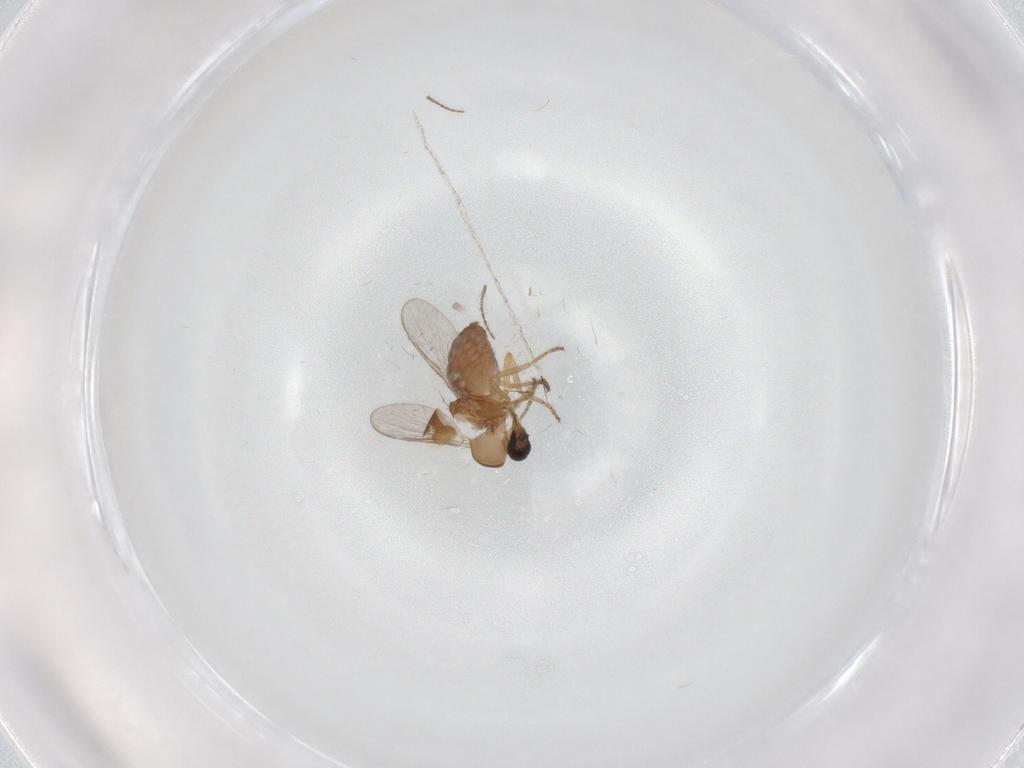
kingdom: Animalia
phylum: Arthropoda
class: Insecta
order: Diptera
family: Ceratopogonidae
